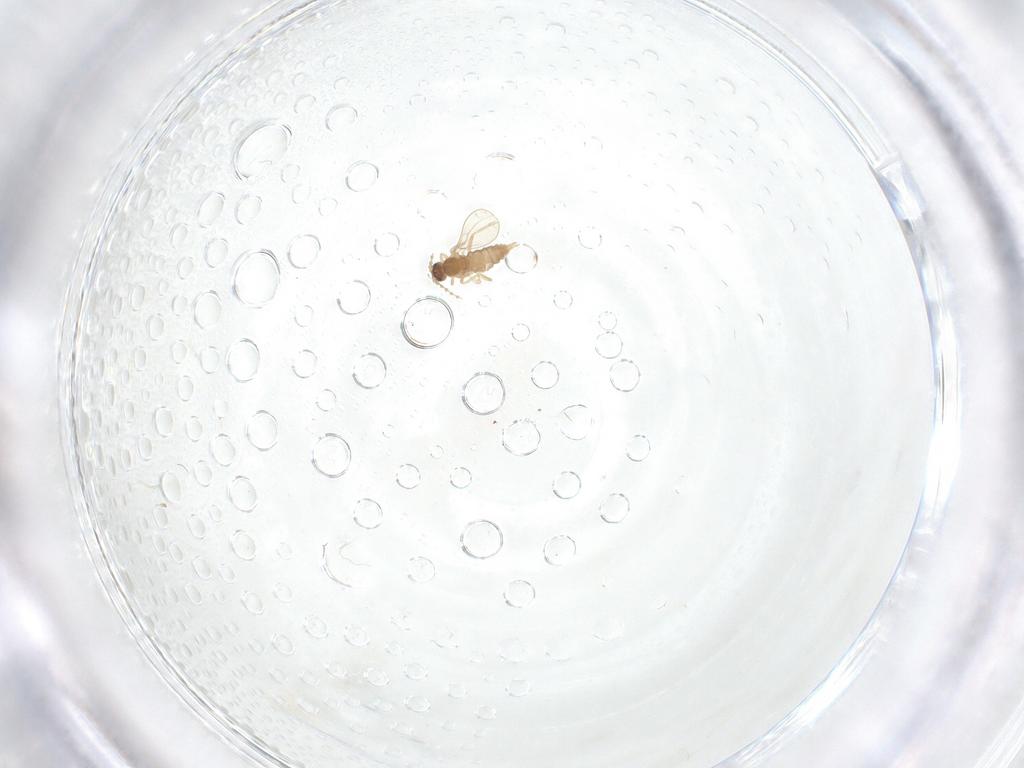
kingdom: Animalia
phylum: Arthropoda
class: Insecta
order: Diptera
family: Cecidomyiidae
